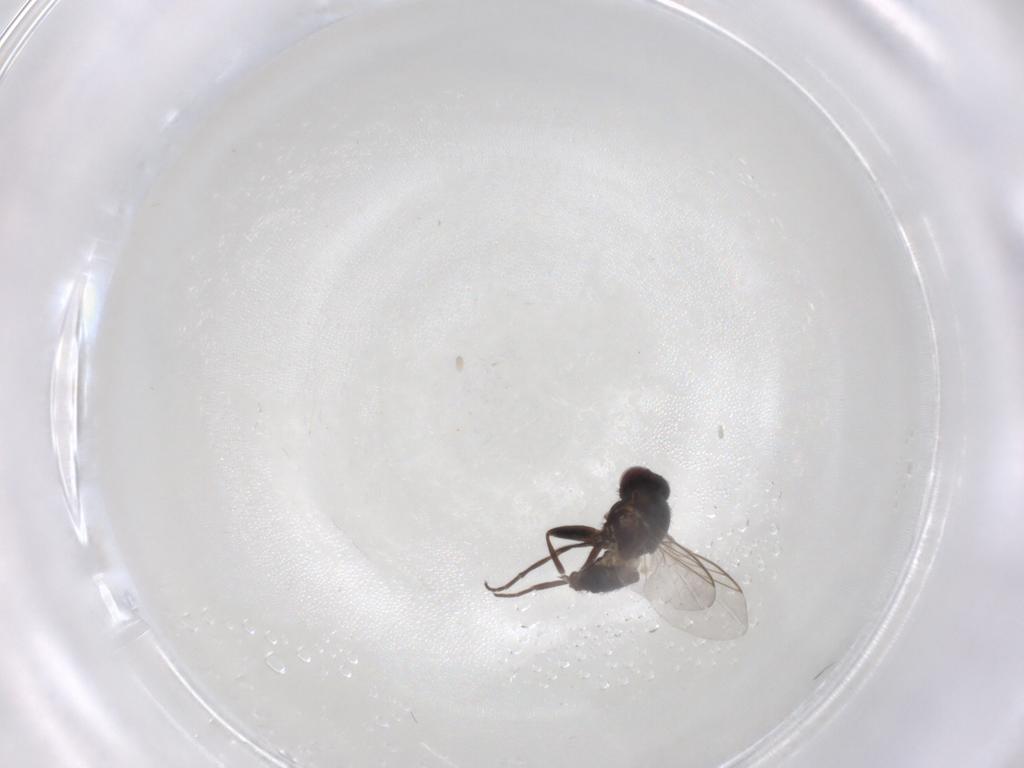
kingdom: Animalia
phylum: Arthropoda
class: Insecta
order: Diptera
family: Agromyzidae
